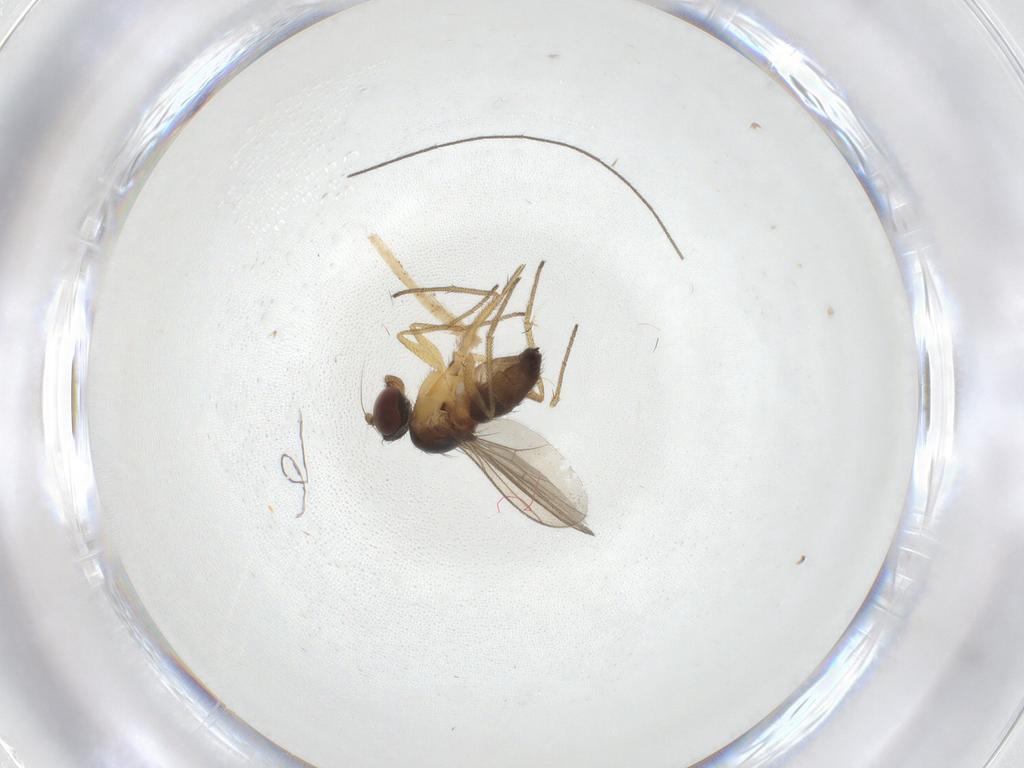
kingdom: Animalia
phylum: Arthropoda
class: Insecta
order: Diptera
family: Dolichopodidae
